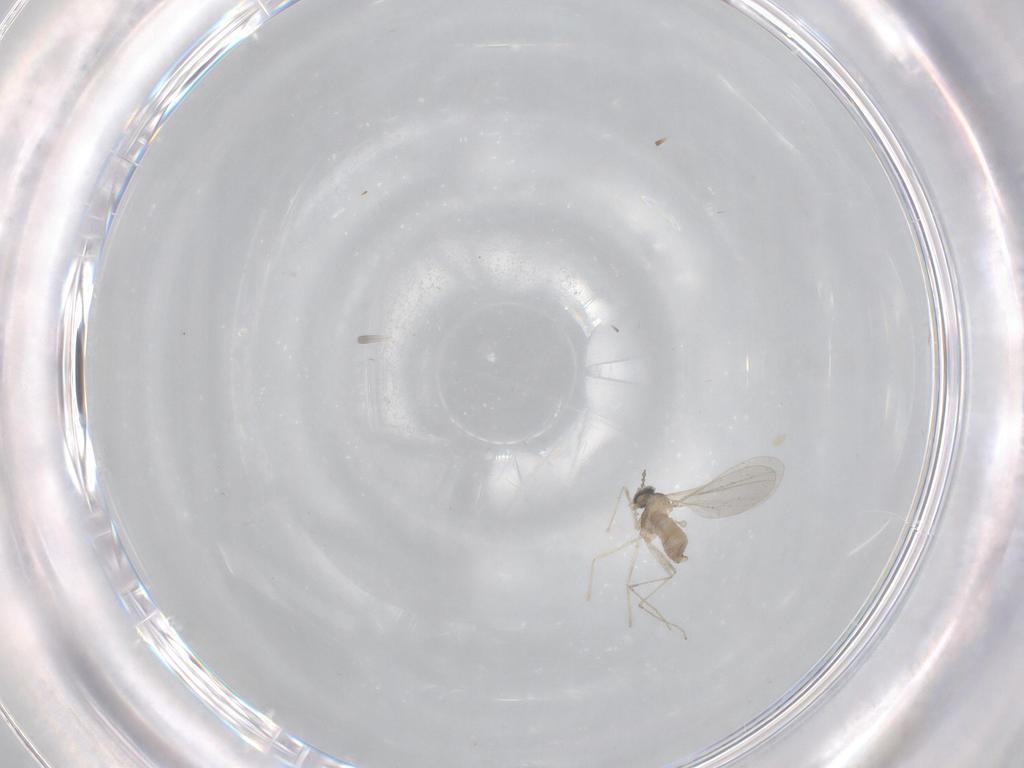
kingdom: Animalia
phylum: Arthropoda
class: Insecta
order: Diptera
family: Cecidomyiidae
